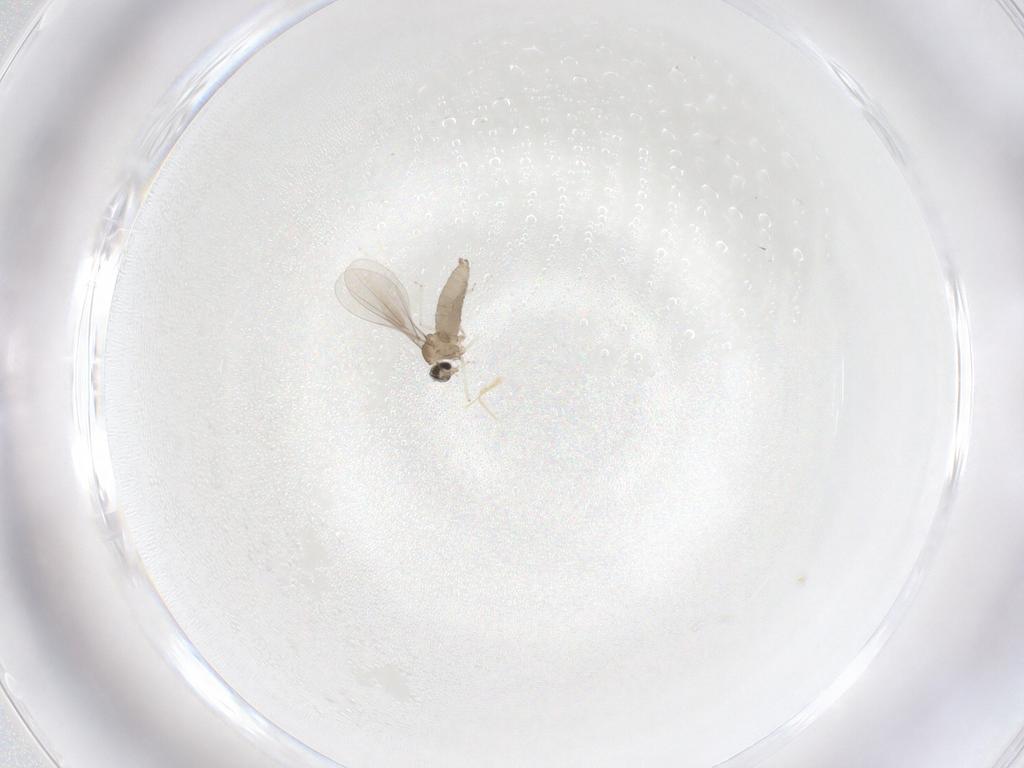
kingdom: Animalia
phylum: Arthropoda
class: Insecta
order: Diptera
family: Cecidomyiidae
